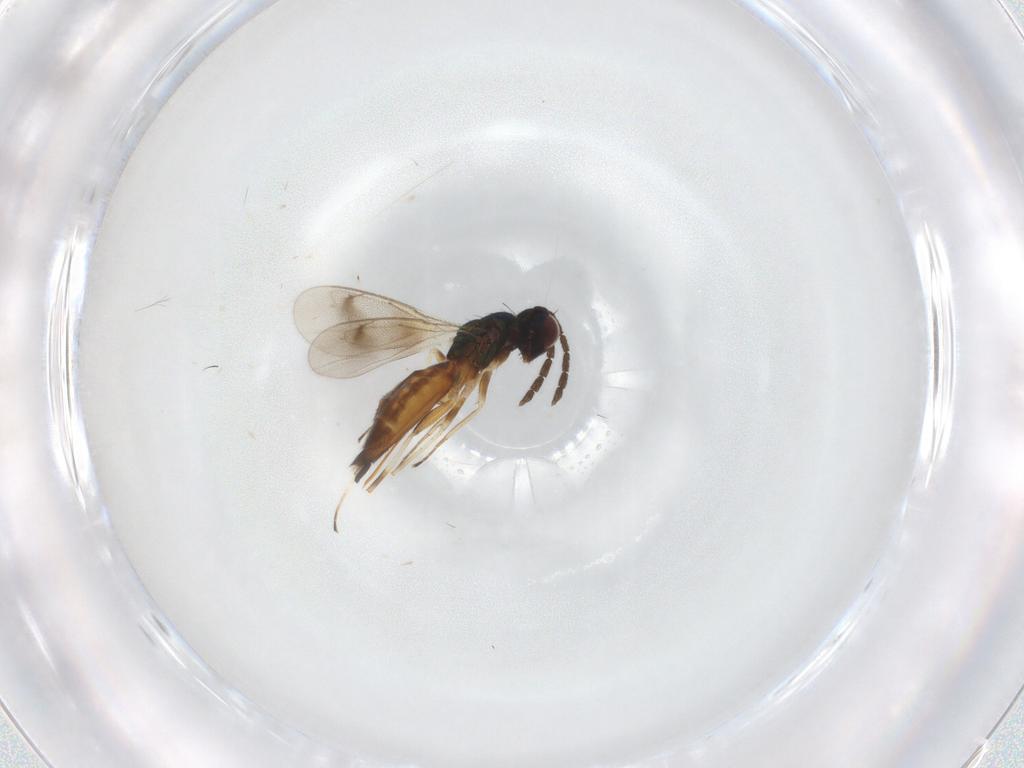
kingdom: Animalia
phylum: Arthropoda
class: Insecta
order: Hymenoptera
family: Eulophidae
